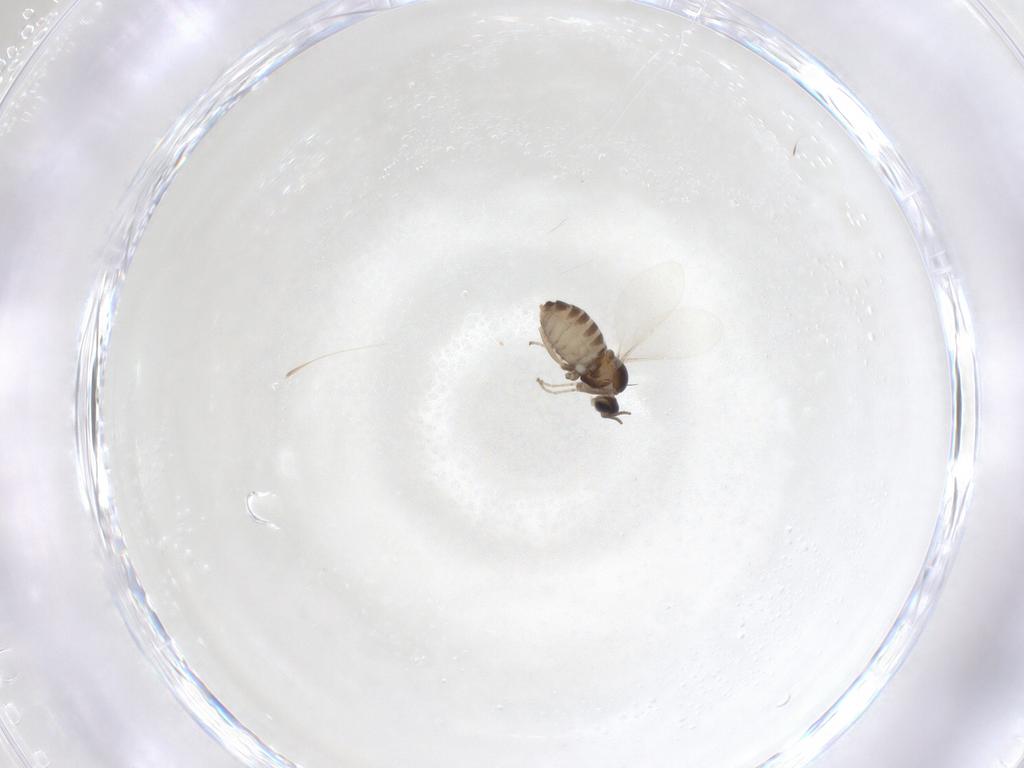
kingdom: Animalia
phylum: Arthropoda
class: Insecta
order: Diptera
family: Cecidomyiidae
